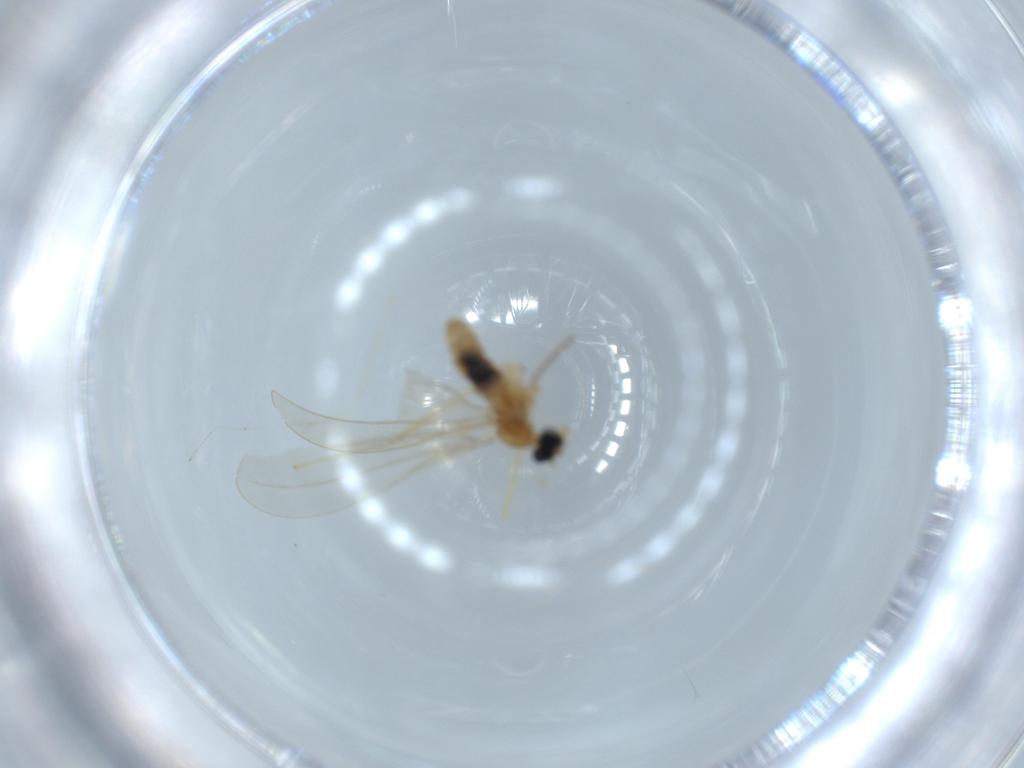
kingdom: Animalia
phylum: Arthropoda
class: Insecta
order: Diptera
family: Cecidomyiidae
